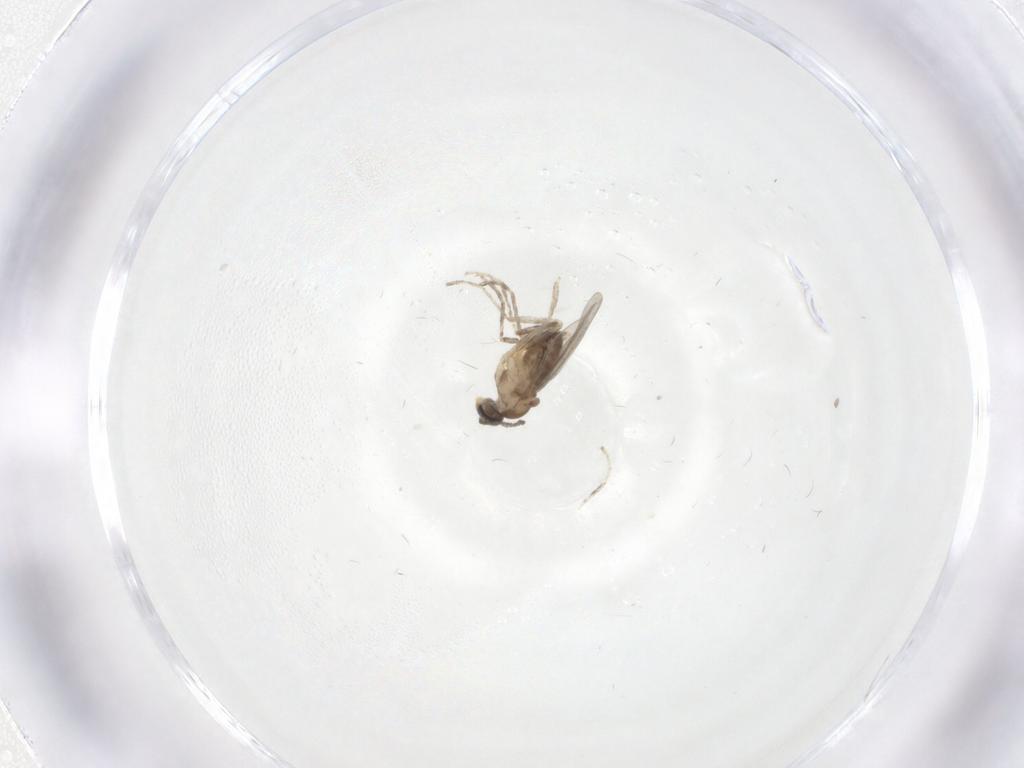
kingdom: Animalia
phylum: Arthropoda
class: Insecta
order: Diptera
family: Cecidomyiidae
